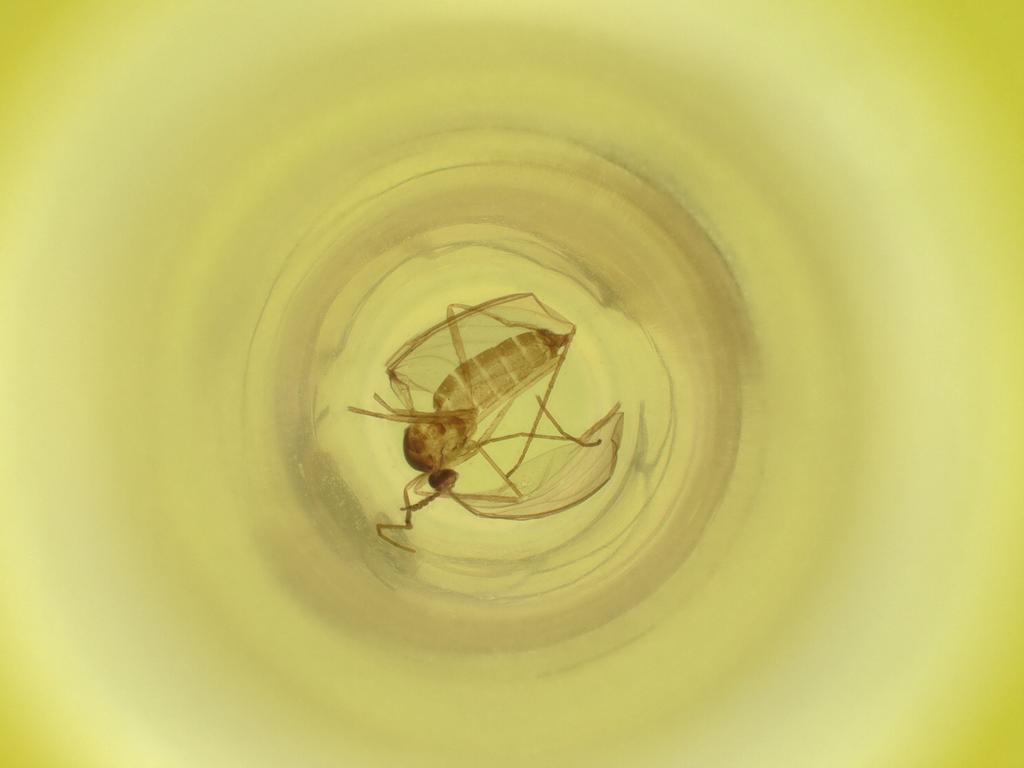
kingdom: Animalia
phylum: Arthropoda
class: Insecta
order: Diptera
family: Cecidomyiidae
